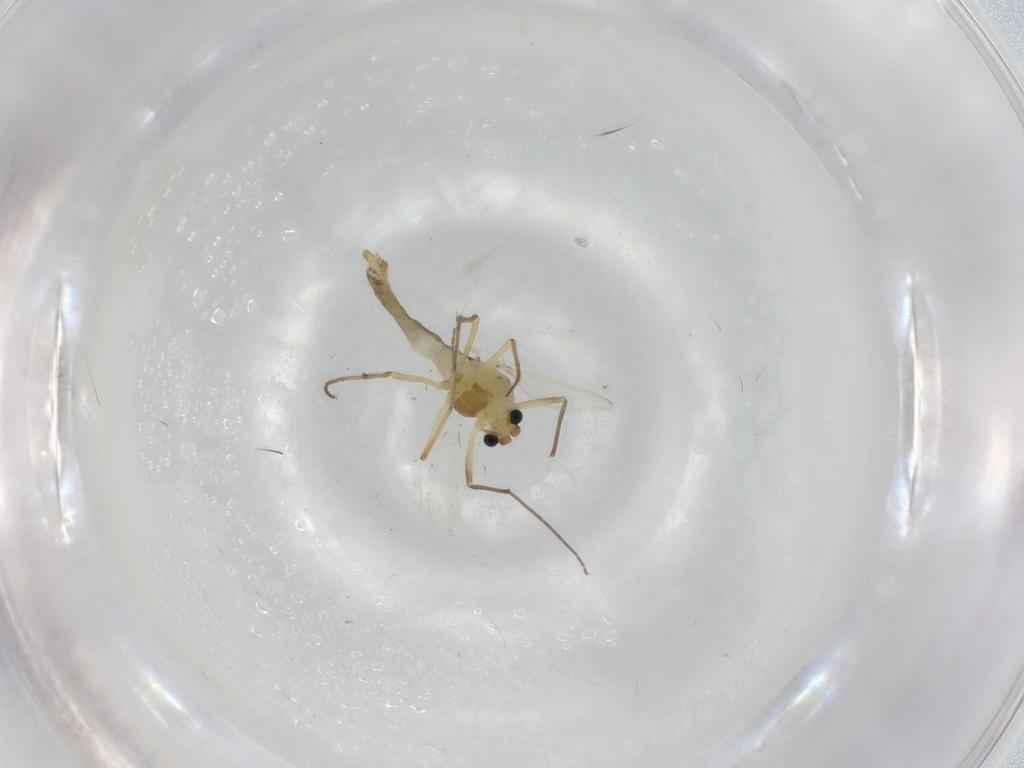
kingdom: Animalia
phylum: Arthropoda
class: Insecta
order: Diptera
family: Chironomidae
